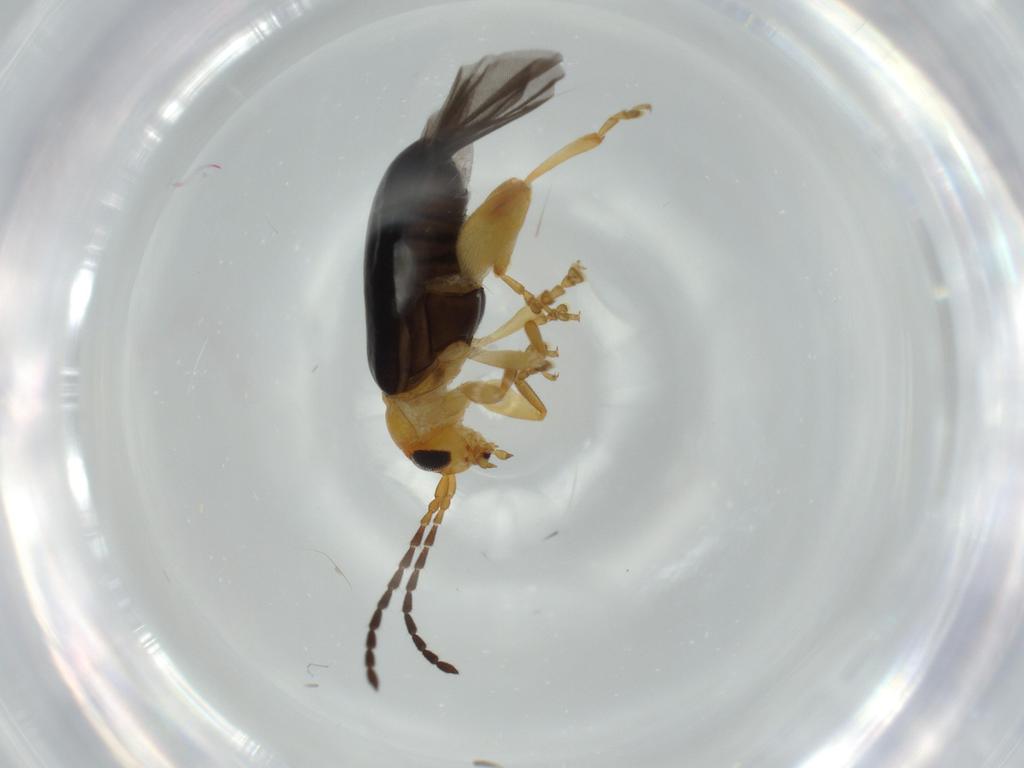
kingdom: Animalia
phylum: Arthropoda
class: Insecta
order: Coleoptera
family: Chrysomelidae
